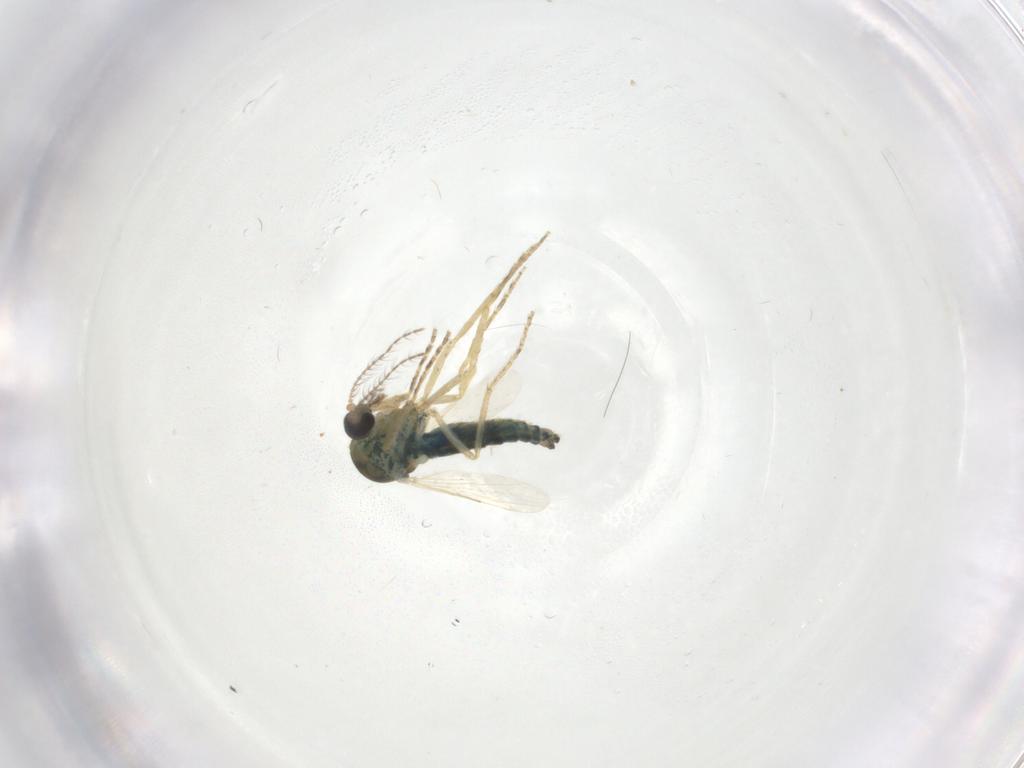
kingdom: Animalia
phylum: Arthropoda
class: Insecta
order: Diptera
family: Ceratopogonidae
